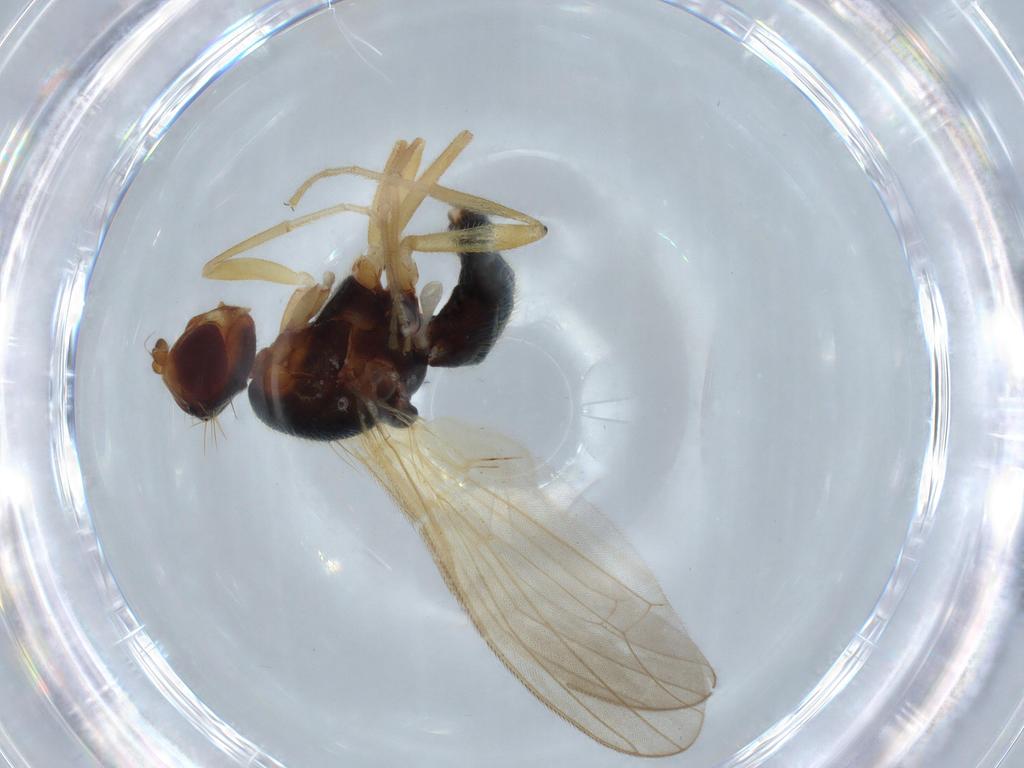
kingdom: Animalia
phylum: Arthropoda
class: Insecta
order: Diptera
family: Psilidae
